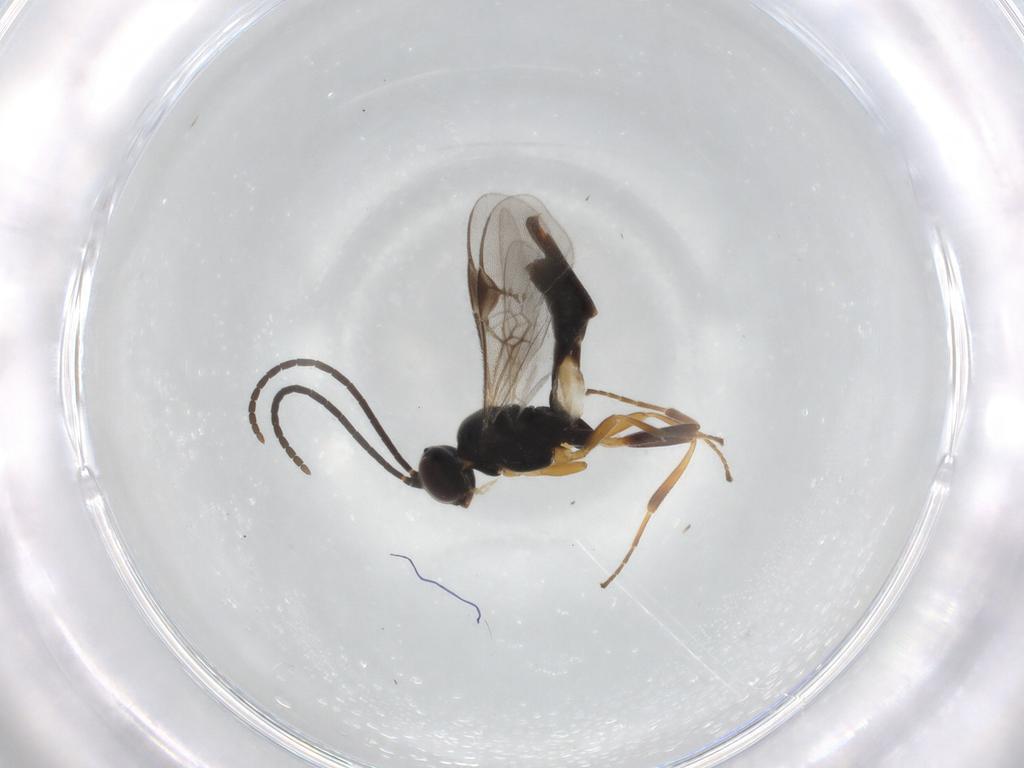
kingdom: Animalia
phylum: Arthropoda
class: Insecta
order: Hymenoptera
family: Braconidae
